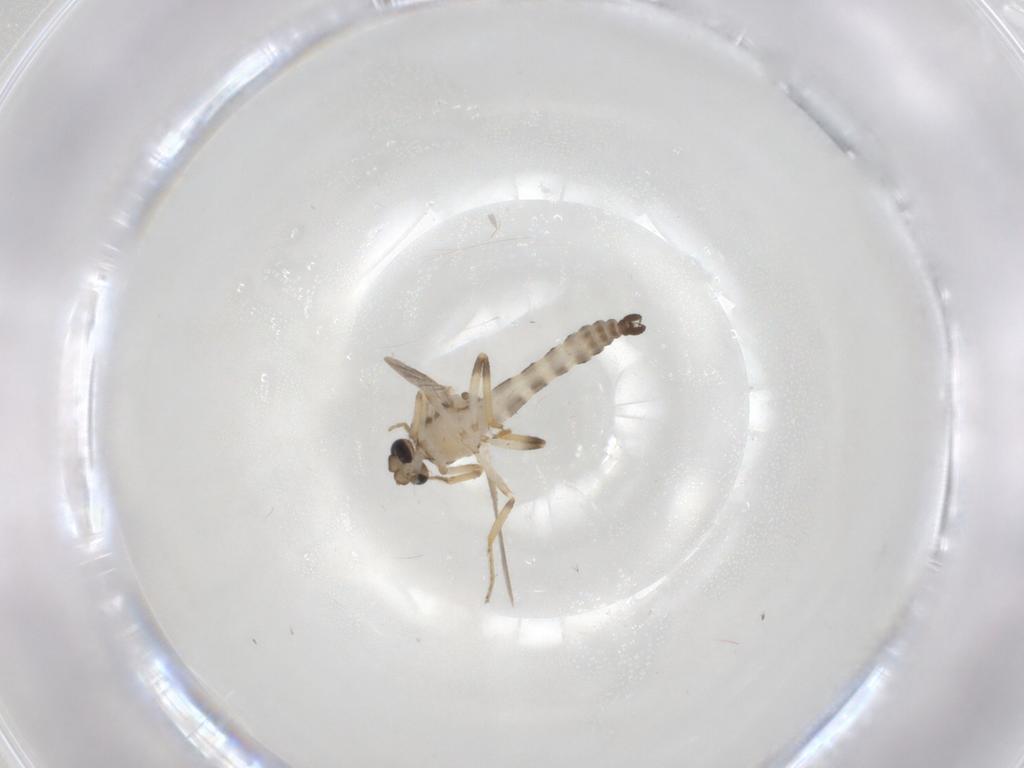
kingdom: Animalia
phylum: Arthropoda
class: Insecta
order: Diptera
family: Ceratopogonidae
